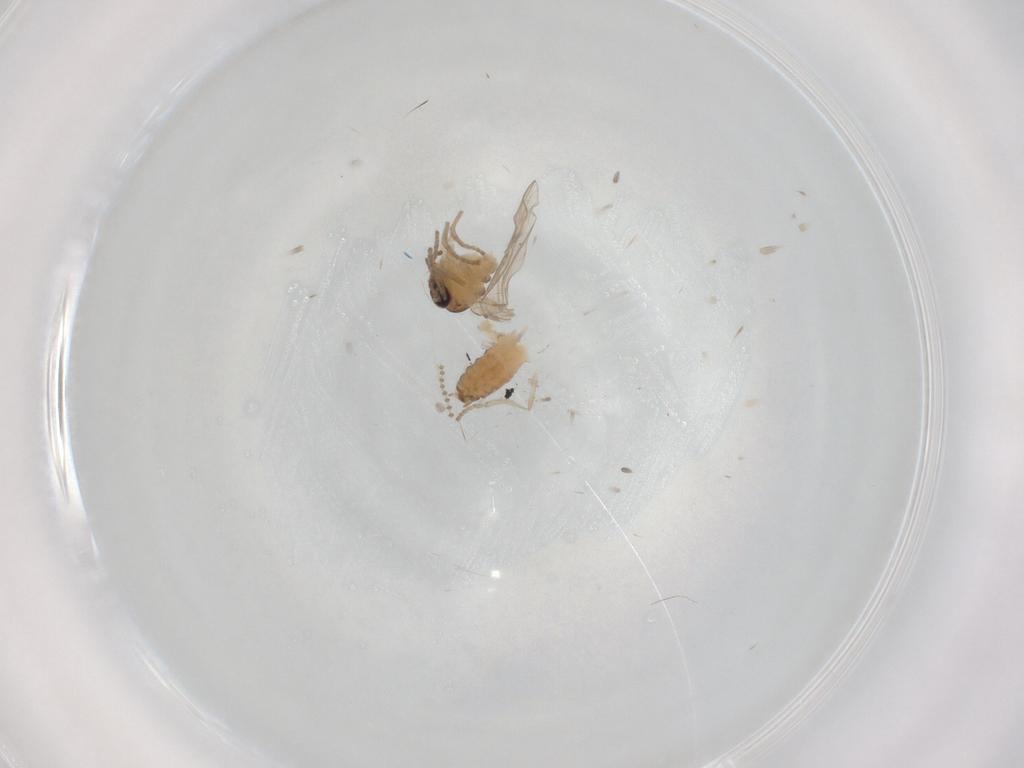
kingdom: Animalia
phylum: Arthropoda
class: Insecta
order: Diptera
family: Psychodidae
